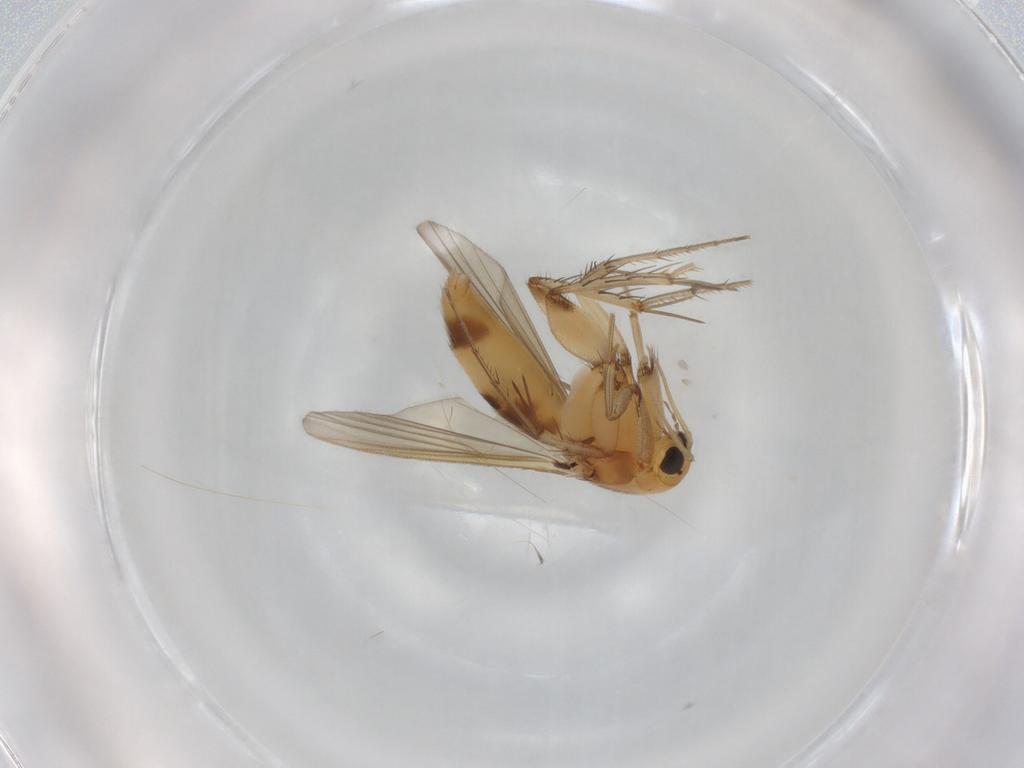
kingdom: Animalia
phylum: Arthropoda
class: Insecta
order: Diptera
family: Mycetophilidae
